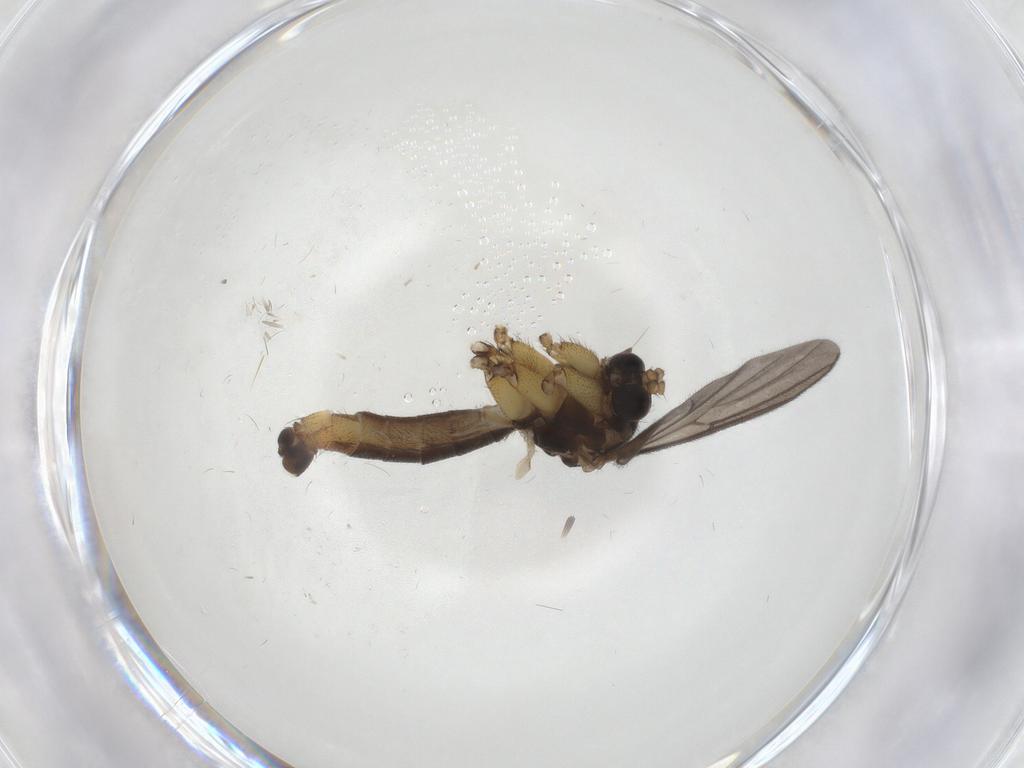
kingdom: Animalia
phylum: Arthropoda
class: Insecta
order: Diptera
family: Mycetophilidae
